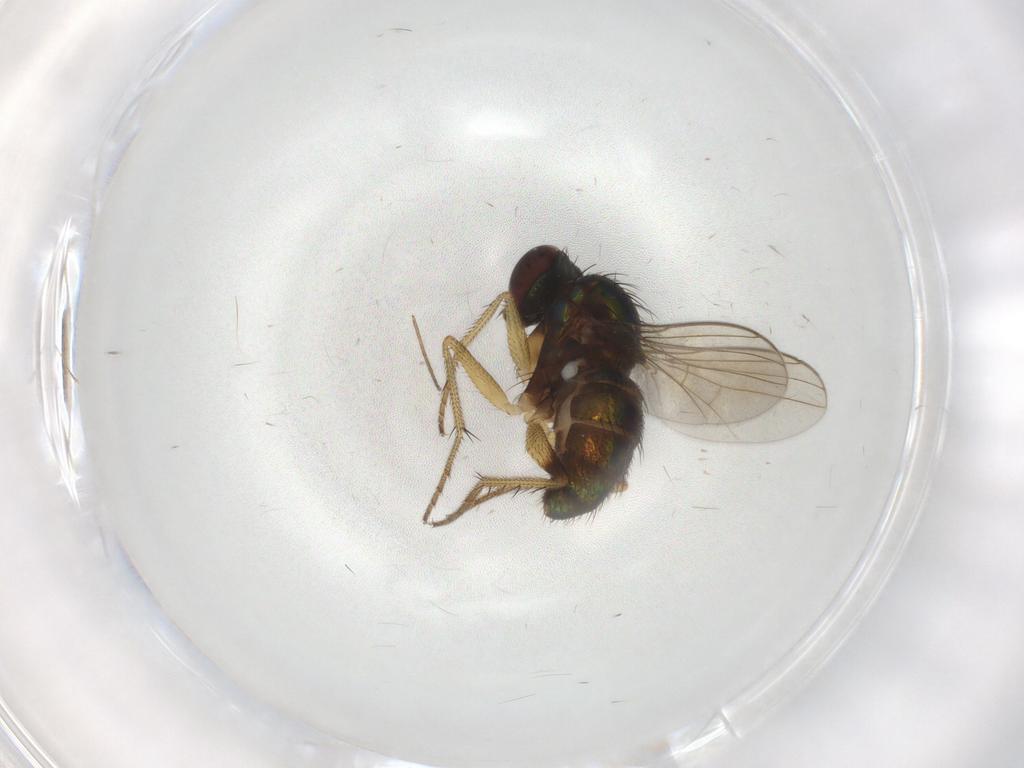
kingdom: Animalia
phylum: Arthropoda
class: Insecta
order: Diptera
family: Dolichopodidae
